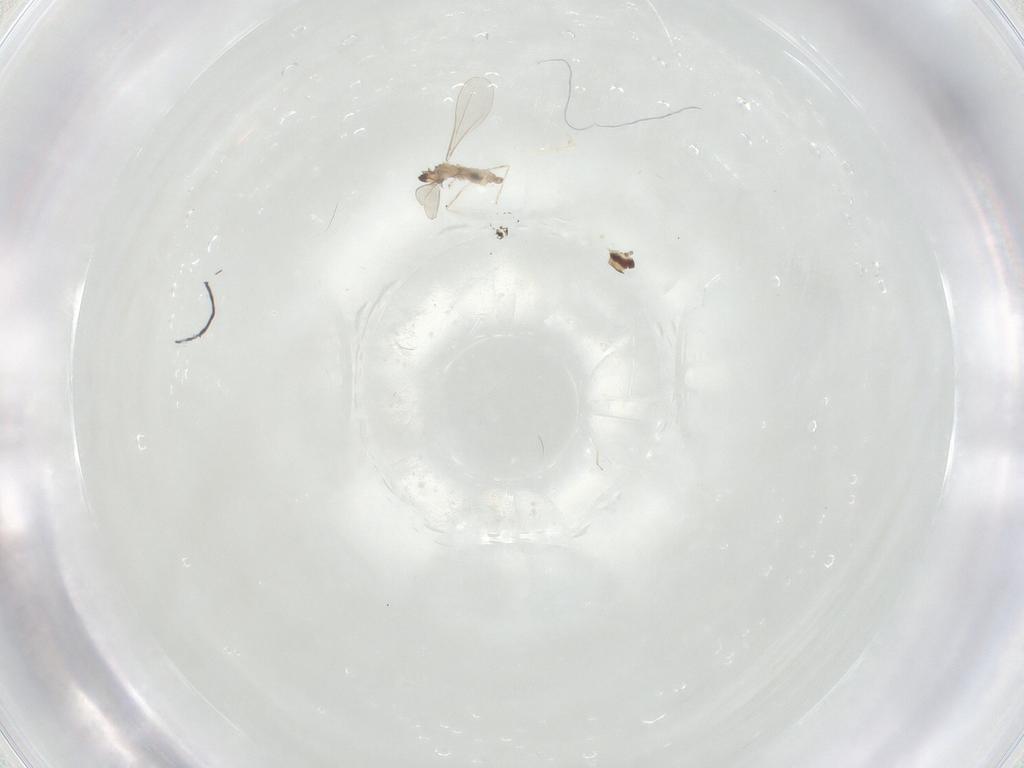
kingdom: Animalia
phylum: Arthropoda
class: Insecta
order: Diptera
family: Cecidomyiidae
